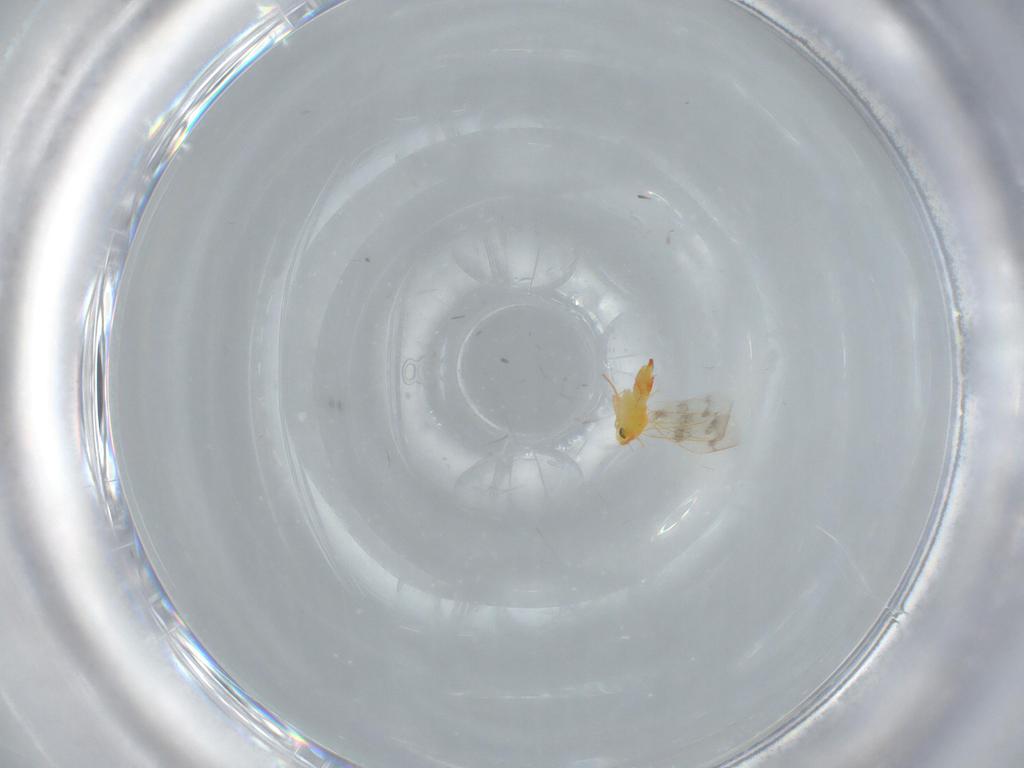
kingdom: Animalia
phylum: Arthropoda
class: Insecta
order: Hemiptera
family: Aleyrodidae
